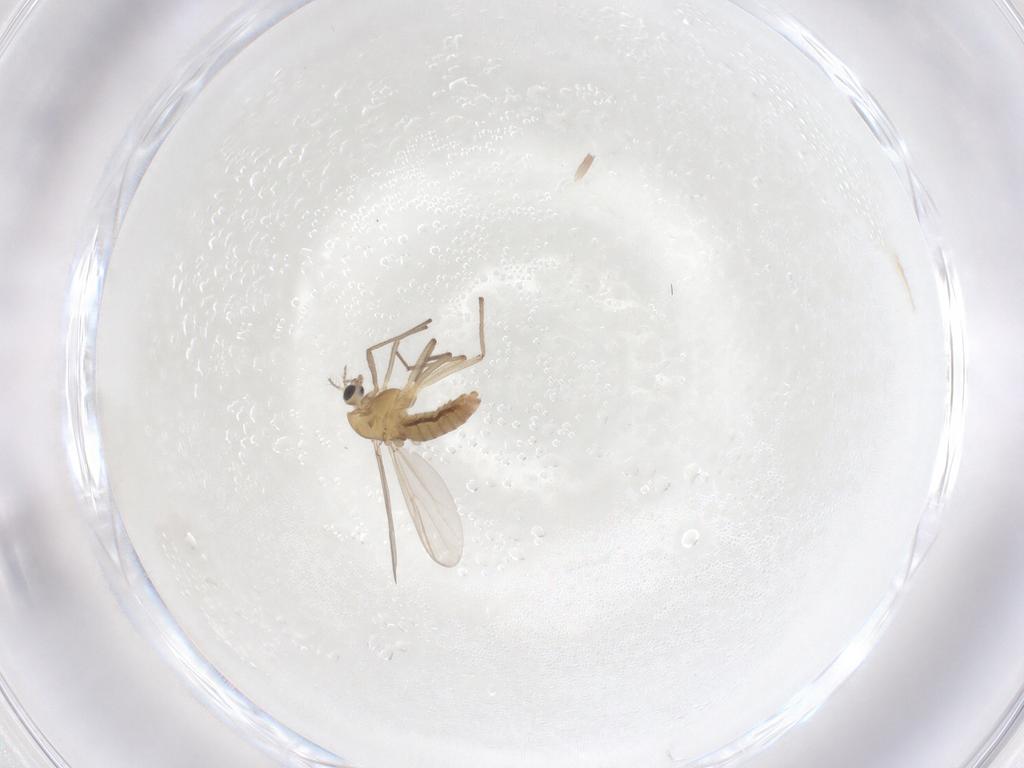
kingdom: Animalia
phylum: Arthropoda
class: Insecta
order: Diptera
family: Chironomidae
